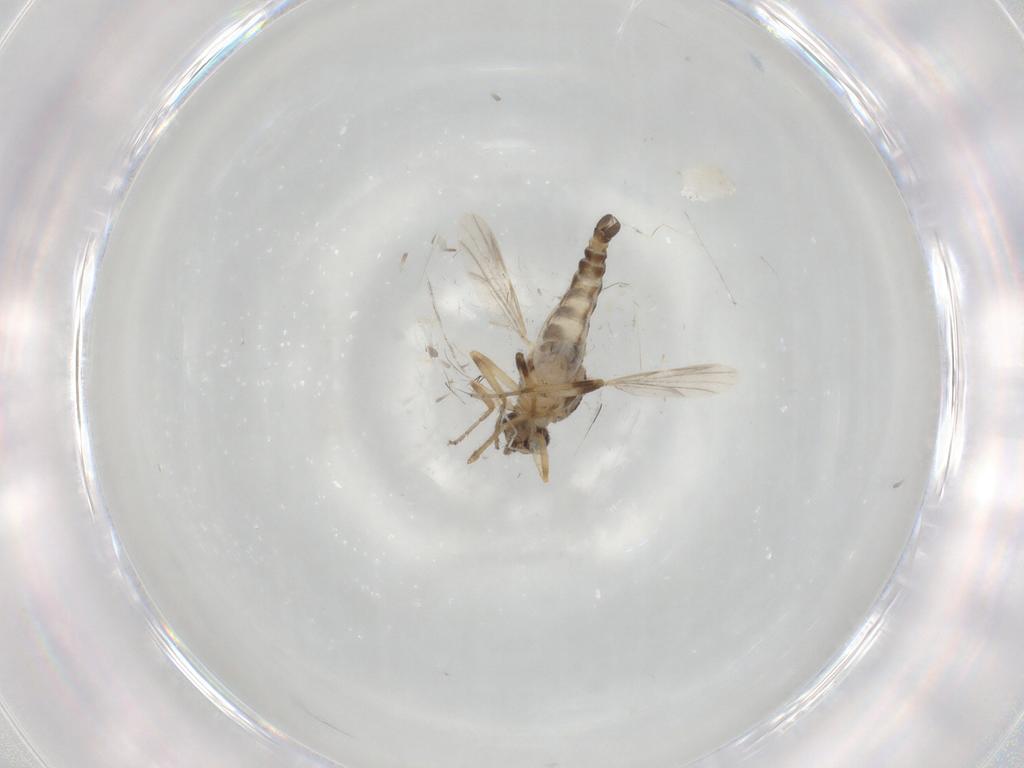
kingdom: Animalia
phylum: Arthropoda
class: Insecta
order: Diptera
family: Ceratopogonidae
